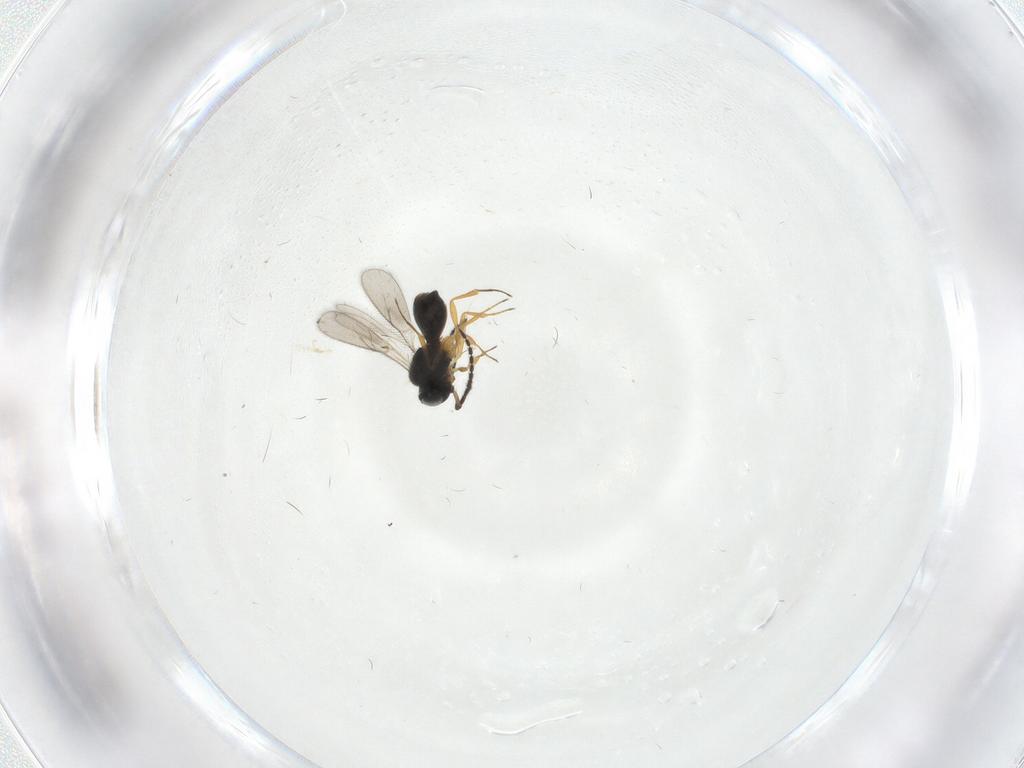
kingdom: Animalia
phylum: Arthropoda
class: Insecta
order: Hymenoptera
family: Scelionidae
